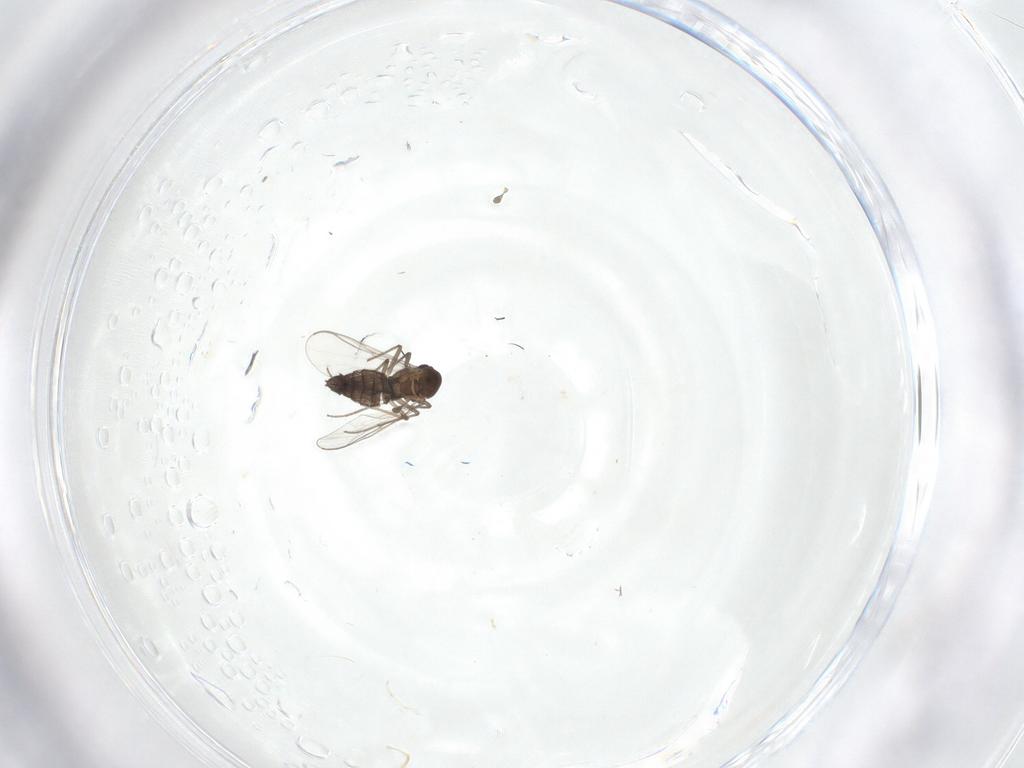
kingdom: Animalia
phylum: Arthropoda
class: Insecta
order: Diptera
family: Chironomidae
